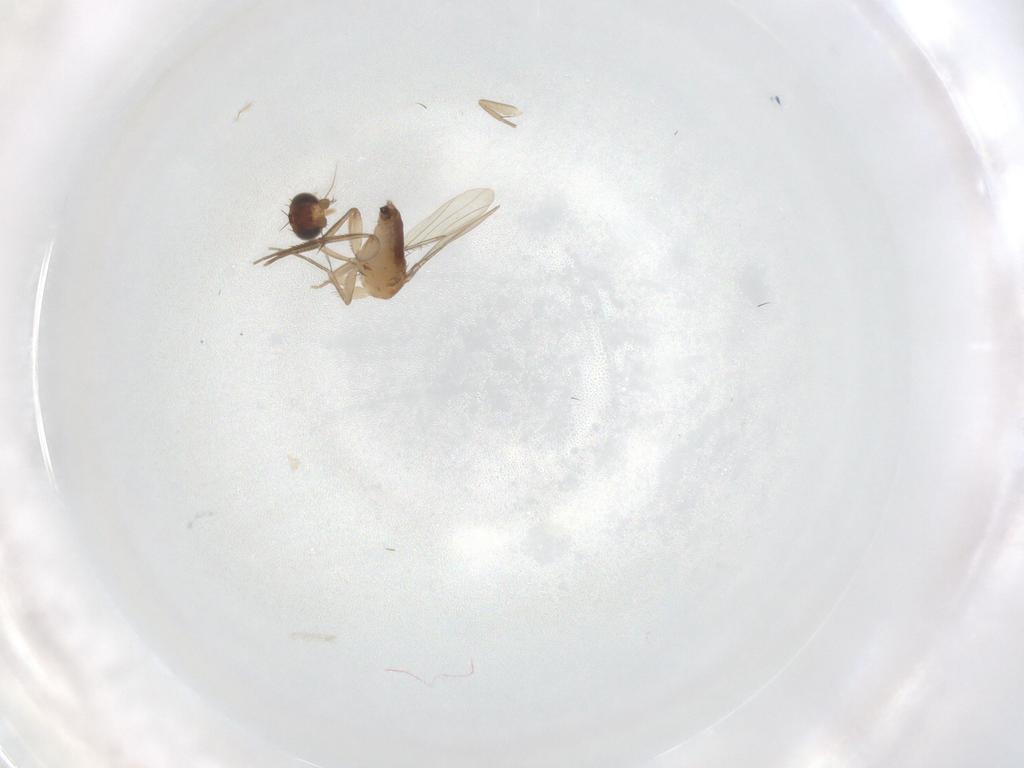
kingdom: Animalia
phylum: Arthropoda
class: Insecta
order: Diptera
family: Phoridae
